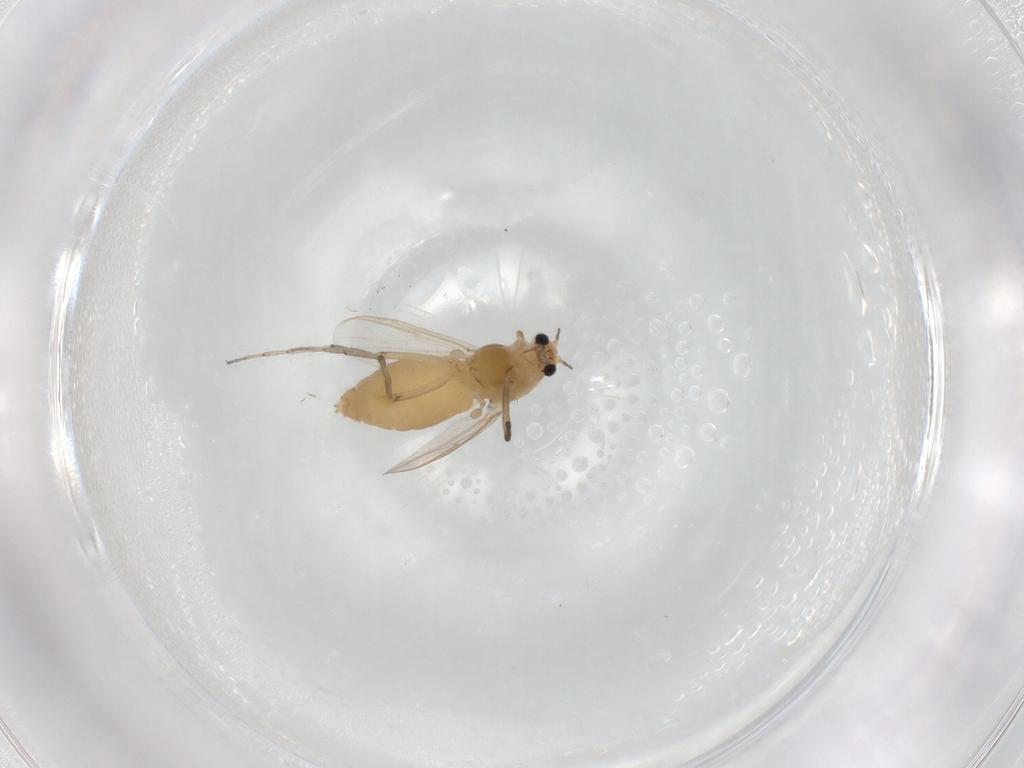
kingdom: Animalia
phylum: Arthropoda
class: Insecta
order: Diptera
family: Chironomidae
